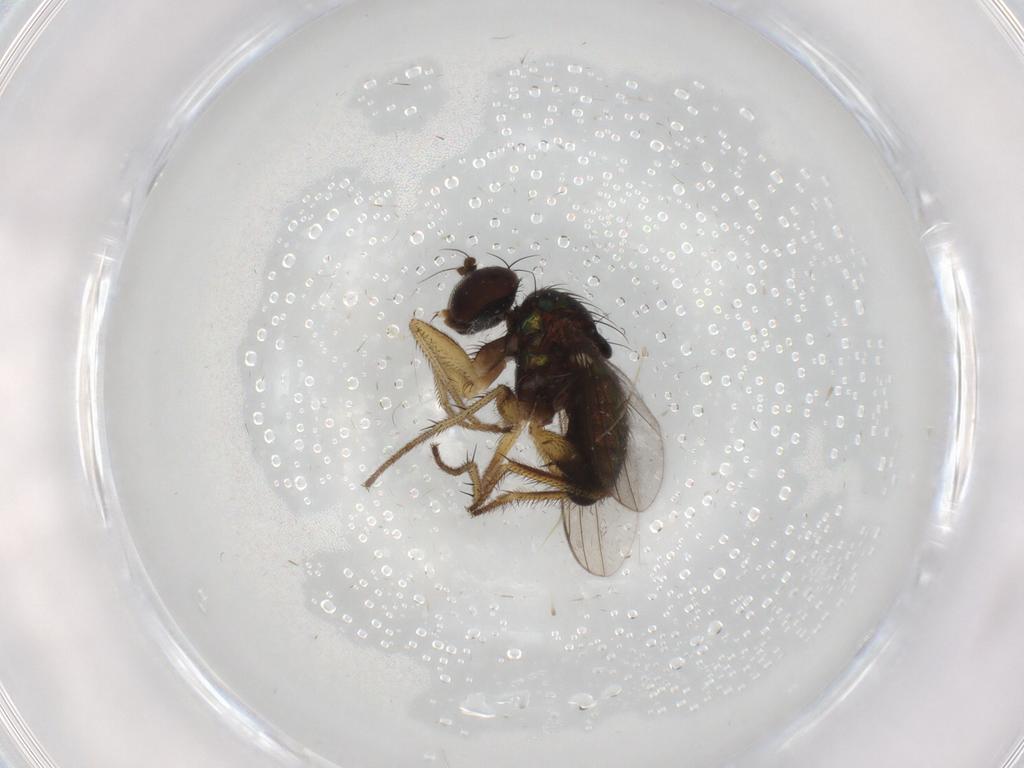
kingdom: Animalia
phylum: Arthropoda
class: Insecta
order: Diptera
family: Dolichopodidae
